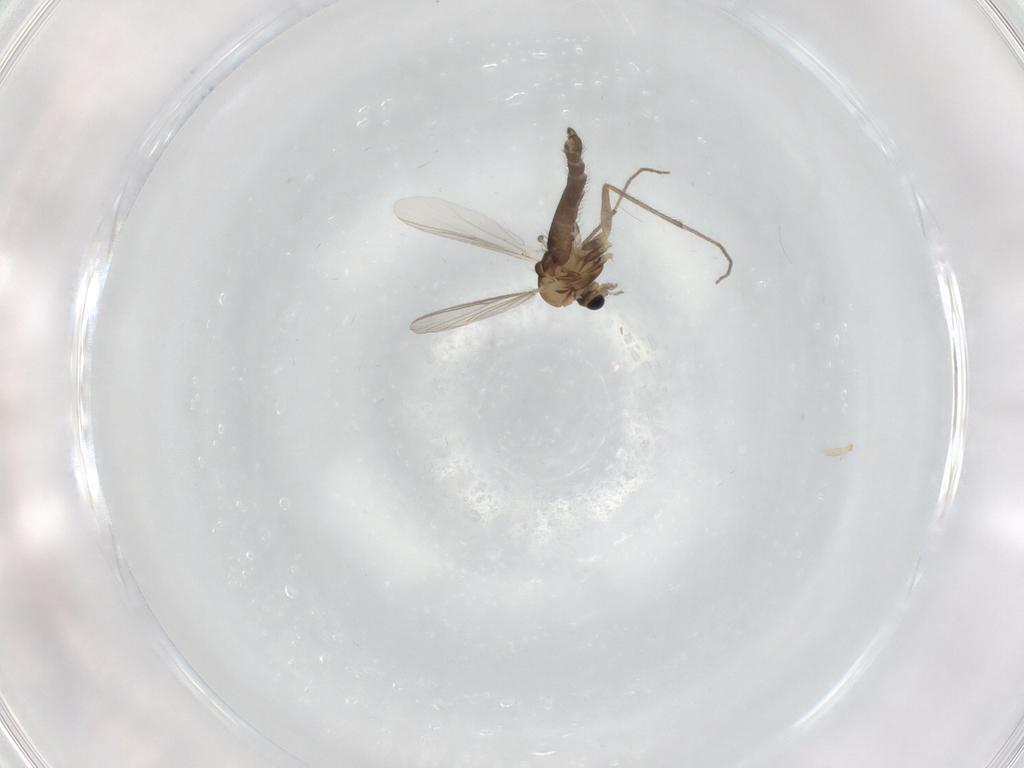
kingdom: Animalia
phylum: Arthropoda
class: Insecta
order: Diptera
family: Chironomidae
